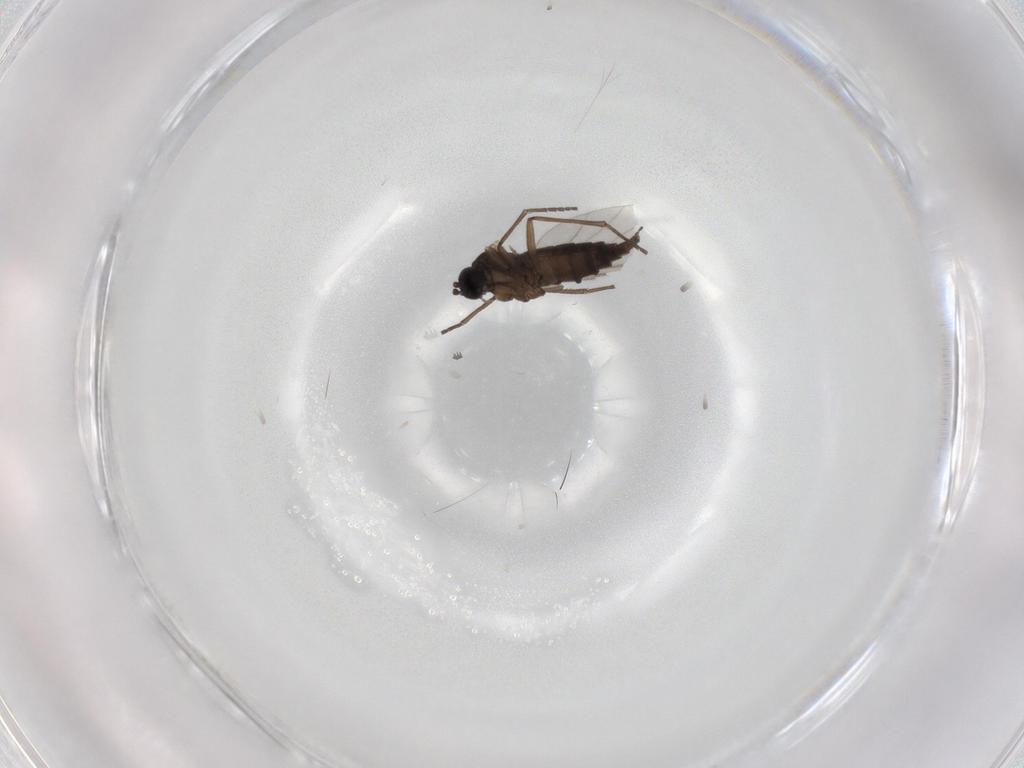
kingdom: Animalia
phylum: Arthropoda
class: Insecta
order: Diptera
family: Sciaridae
